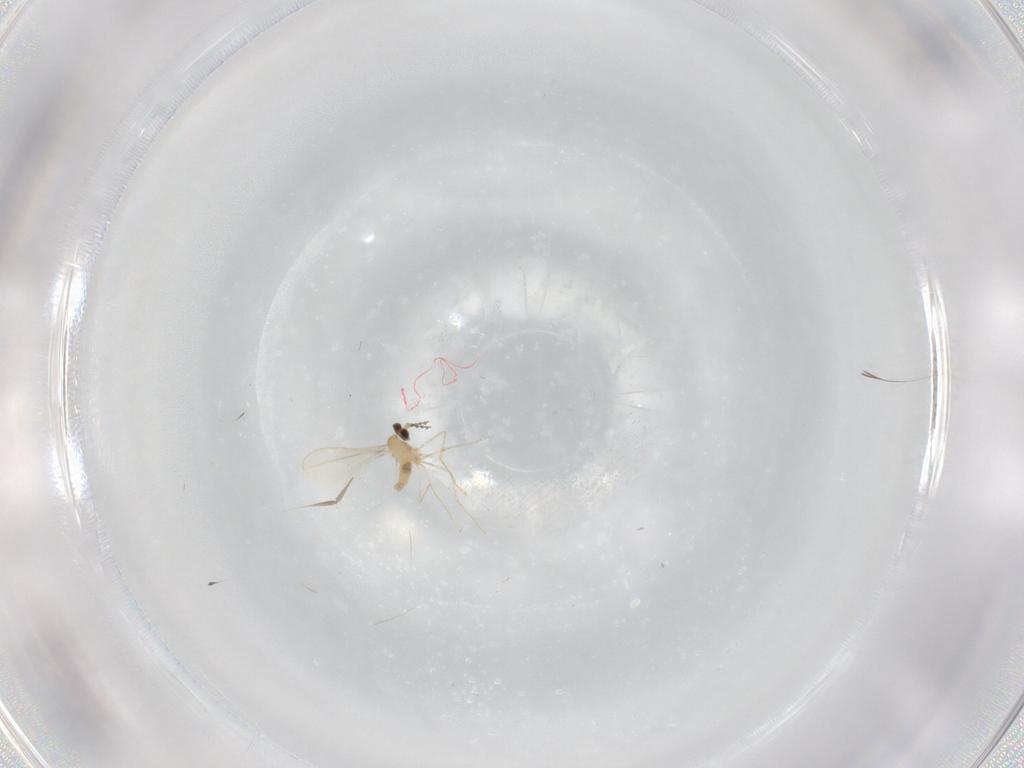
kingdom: Animalia
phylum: Arthropoda
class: Insecta
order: Diptera
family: Cecidomyiidae
